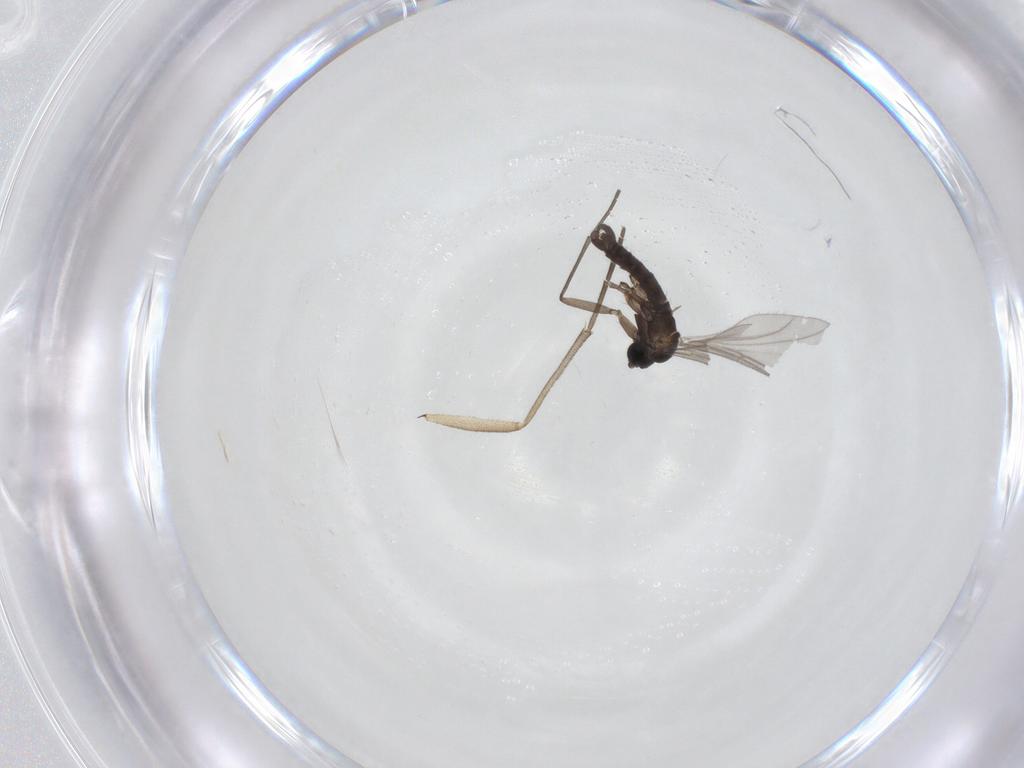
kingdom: Animalia
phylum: Arthropoda
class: Insecta
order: Diptera
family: Sciaridae
